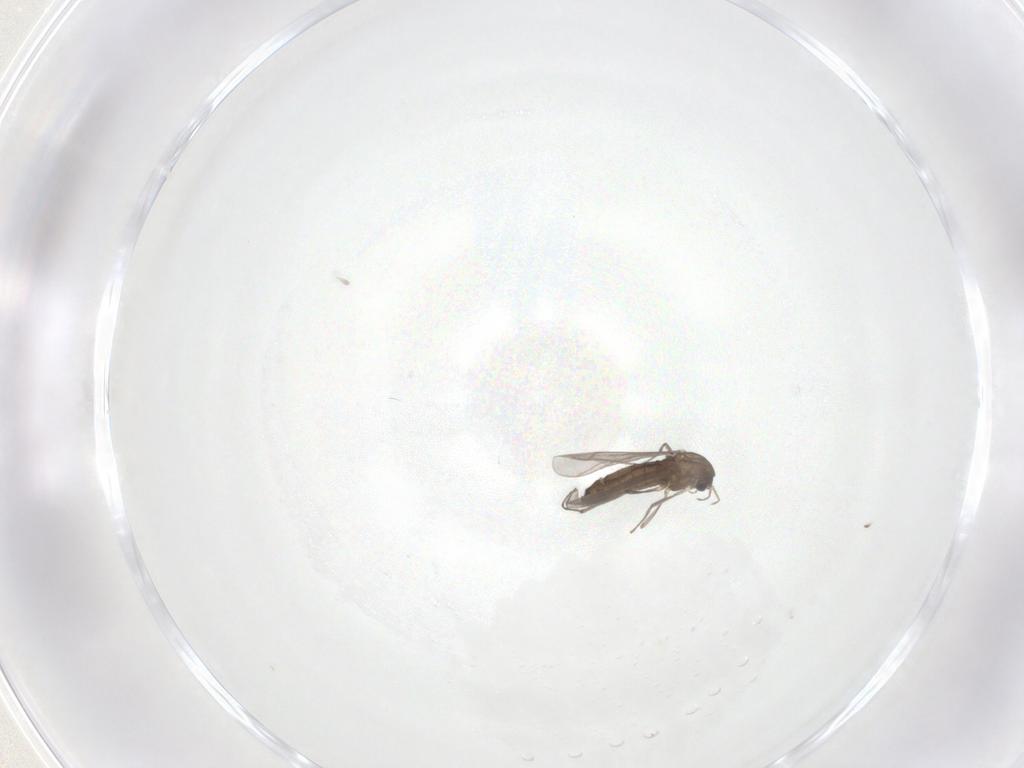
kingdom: Animalia
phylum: Arthropoda
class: Insecta
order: Diptera
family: Chironomidae
